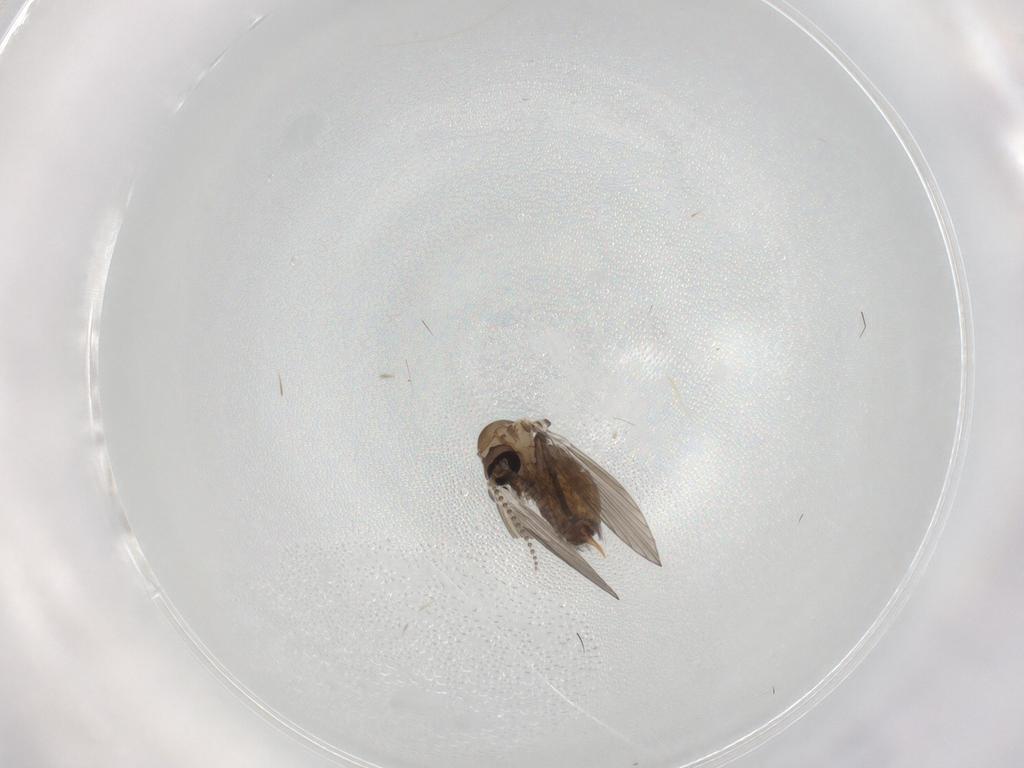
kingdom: Animalia
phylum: Arthropoda
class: Insecta
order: Diptera
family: Psychodidae
